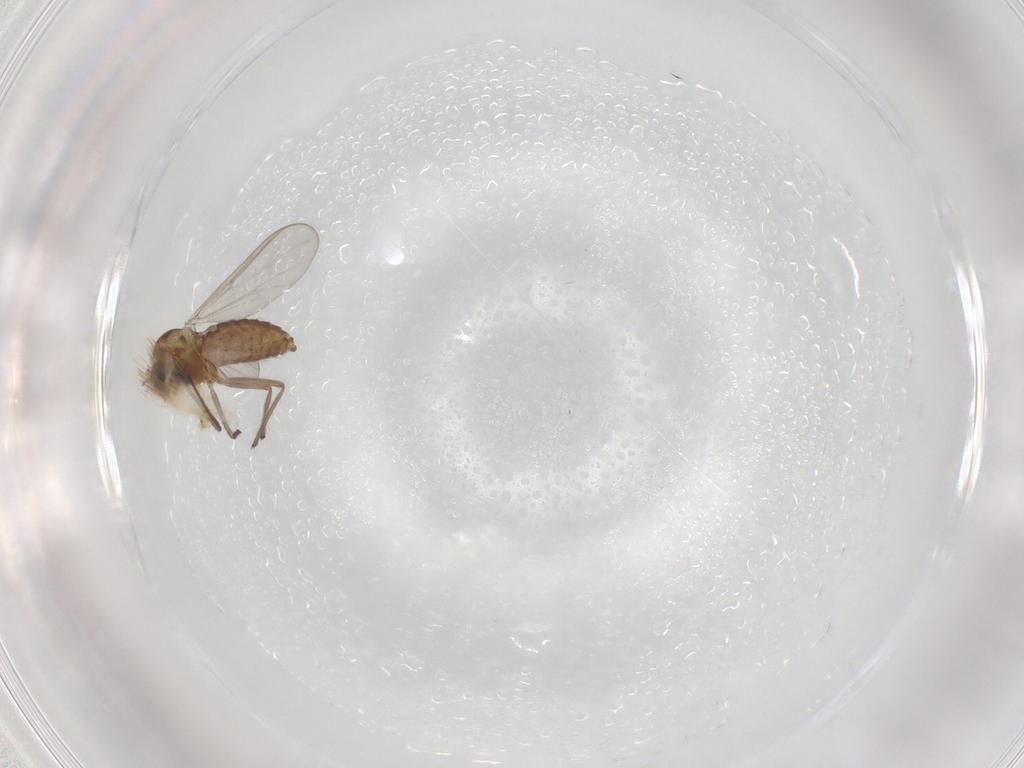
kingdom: Animalia
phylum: Arthropoda
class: Insecta
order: Diptera
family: Chironomidae
